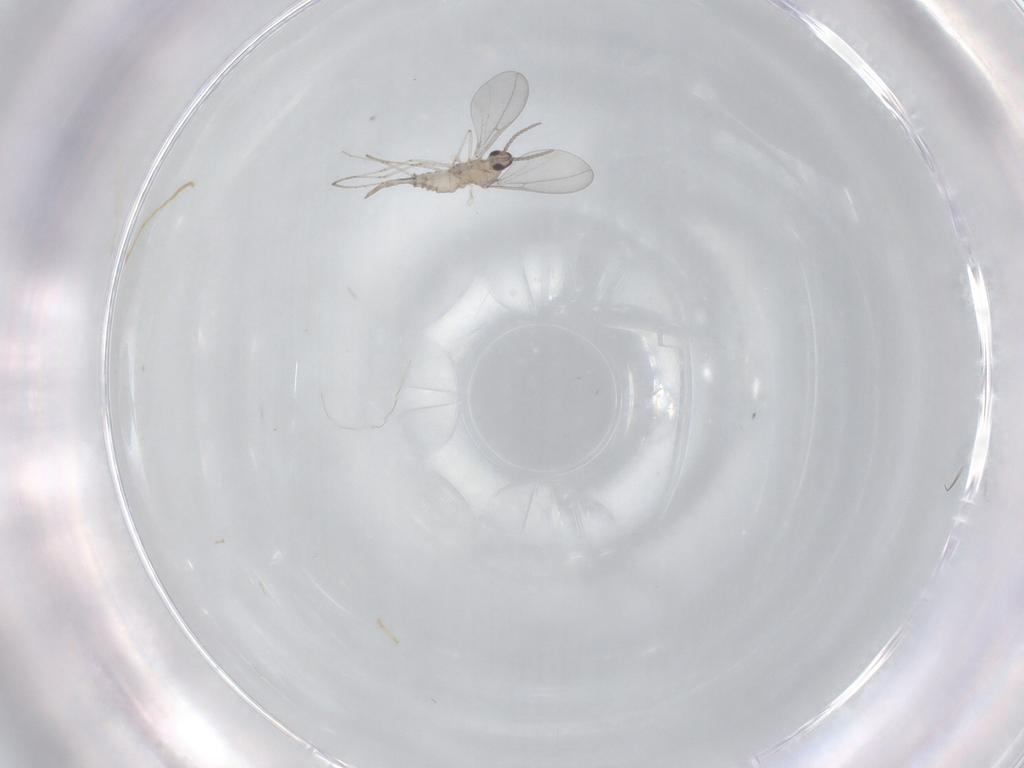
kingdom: Animalia
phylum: Arthropoda
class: Insecta
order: Diptera
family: Cecidomyiidae
